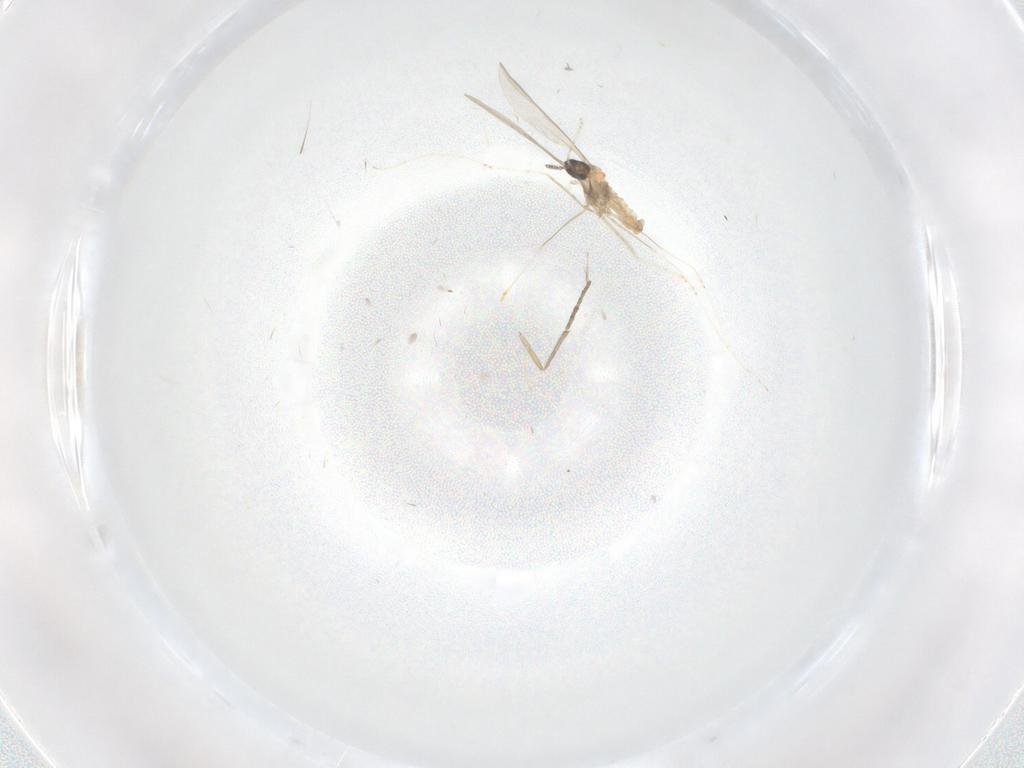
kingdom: Animalia
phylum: Arthropoda
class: Insecta
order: Diptera
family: Cecidomyiidae
